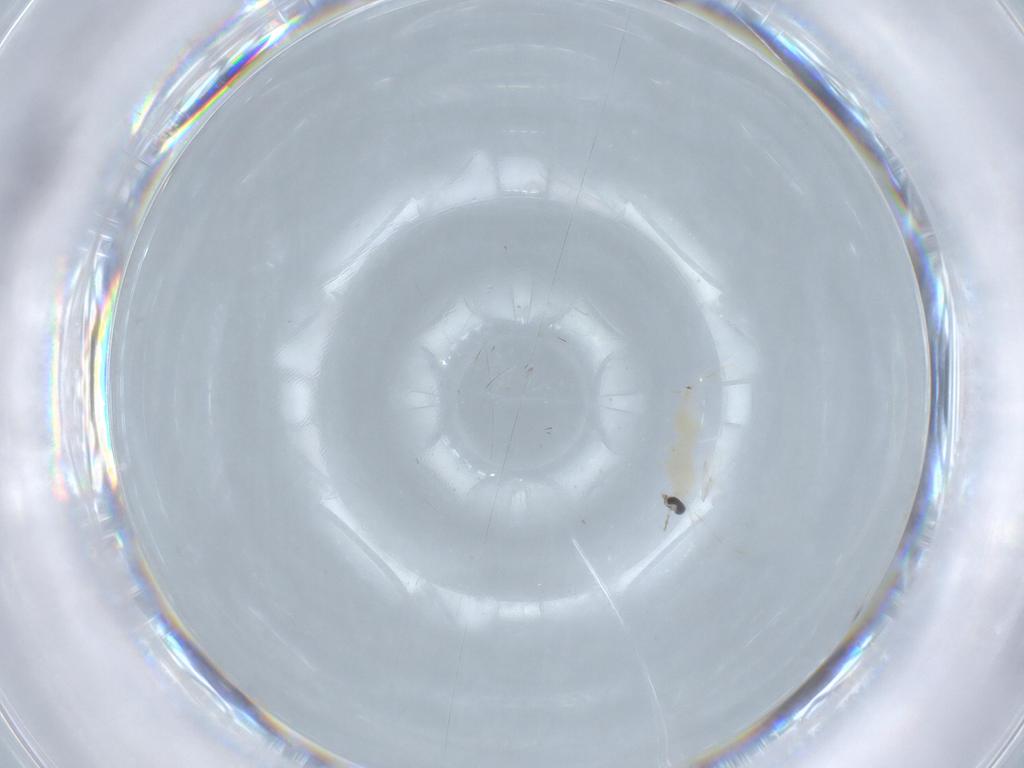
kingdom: Animalia
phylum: Arthropoda
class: Insecta
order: Diptera
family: Cecidomyiidae
